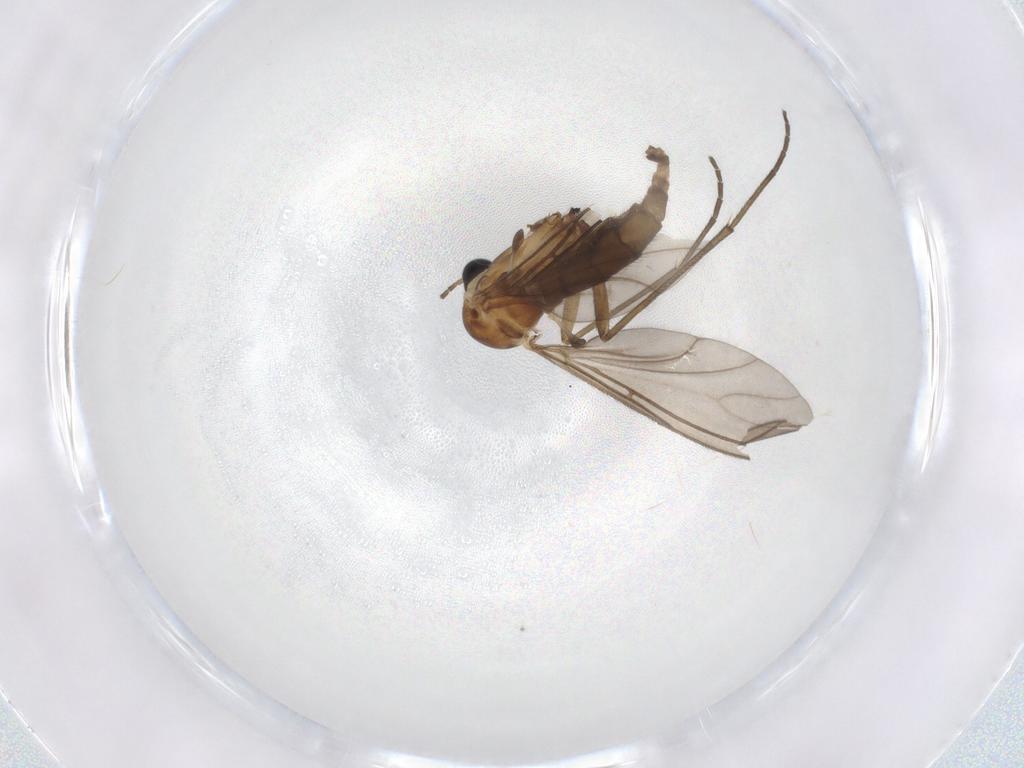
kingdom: Animalia
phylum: Arthropoda
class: Insecta
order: Diptera
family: Sciaridae
